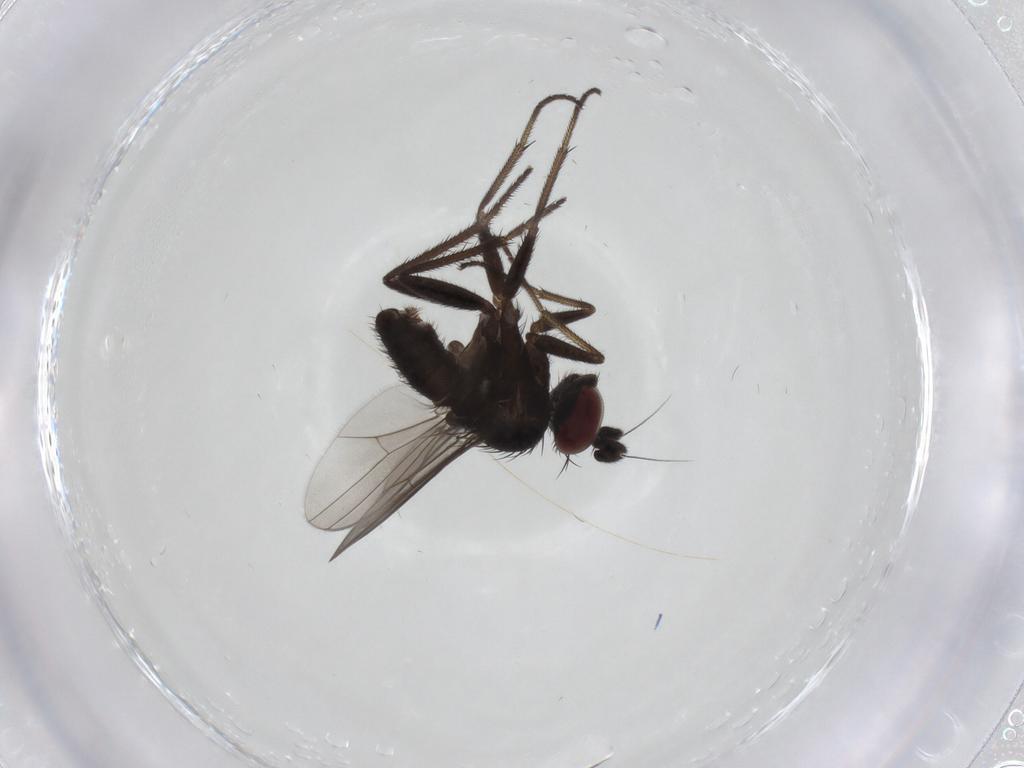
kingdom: Animalia
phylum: Arthropoda
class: Insecta
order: Diptera
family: Dolichopodidae
